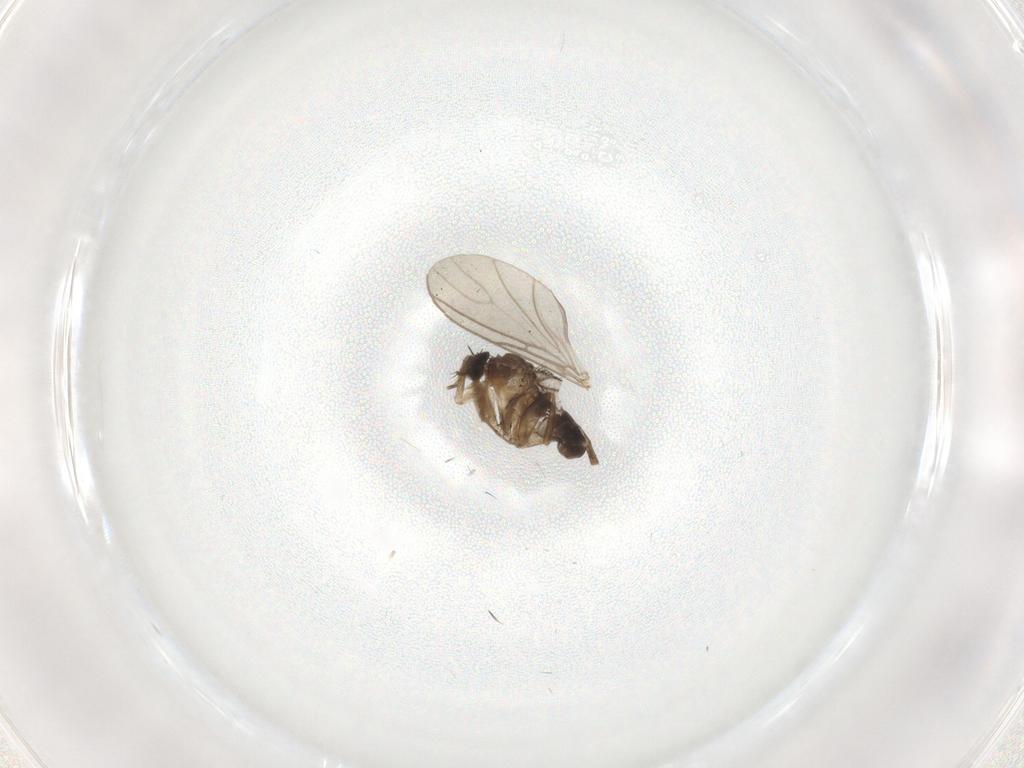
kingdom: Animalia
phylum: Arthropoda
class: Insecta
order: Diptera
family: Phoridae
